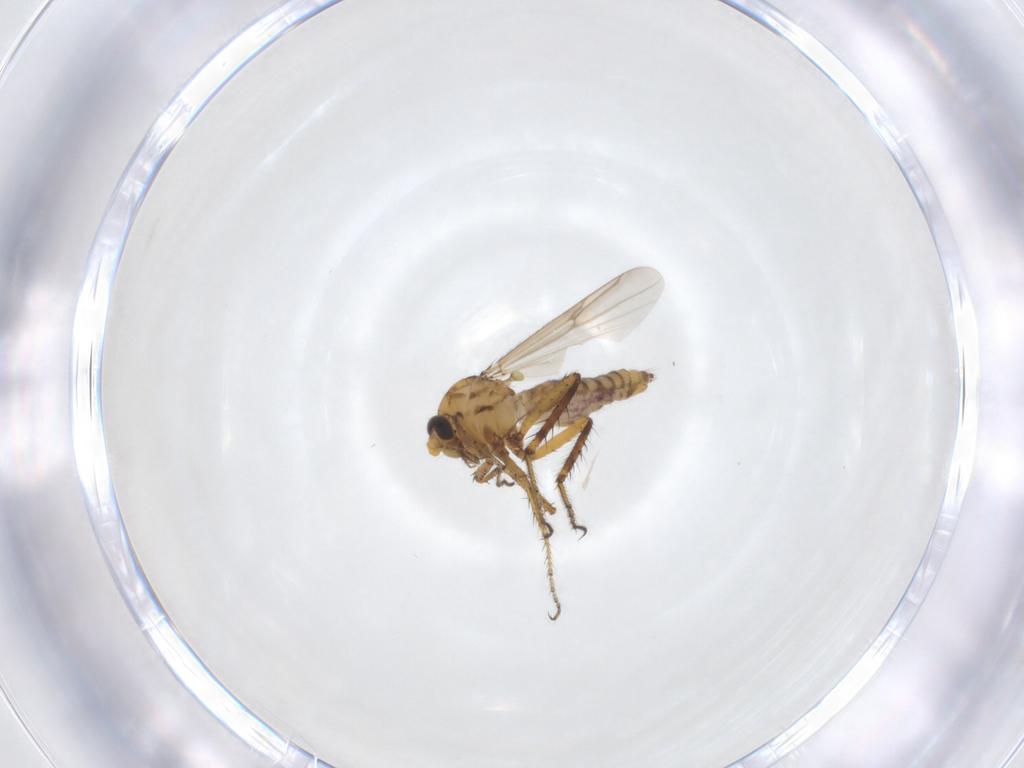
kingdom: Animalia
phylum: Arthropoda
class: Insecta
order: Diptera
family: Cecidomyiidae
